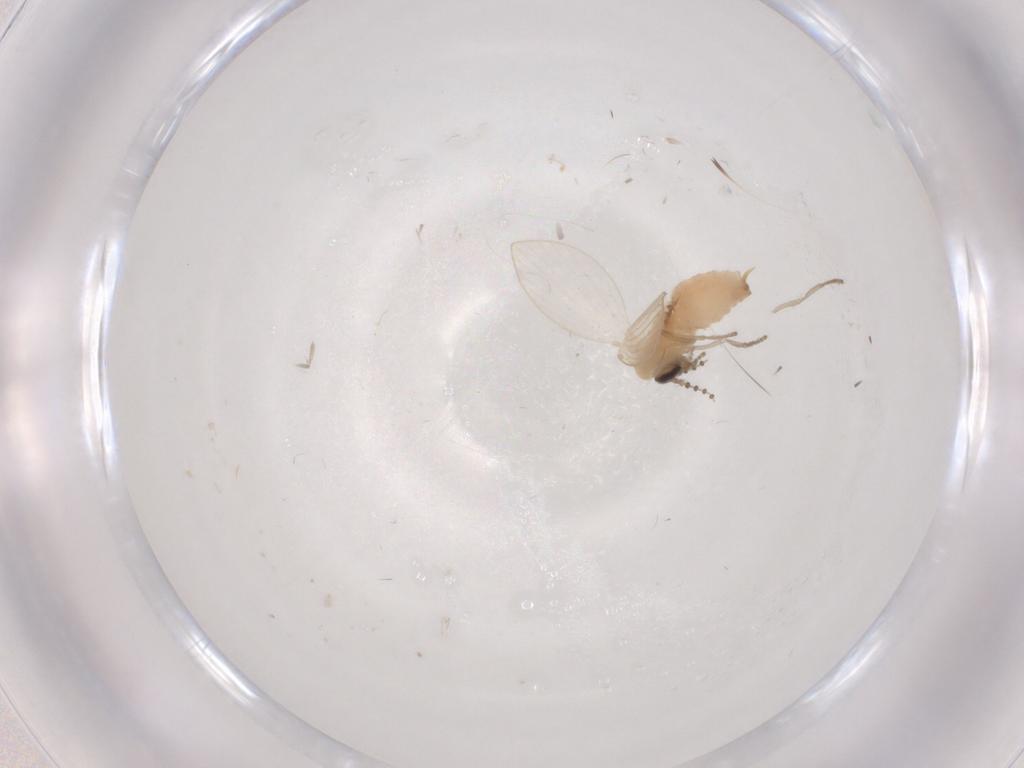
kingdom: Animalia
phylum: Arthropoda
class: Insecta
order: Diptera
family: Psychodidae
